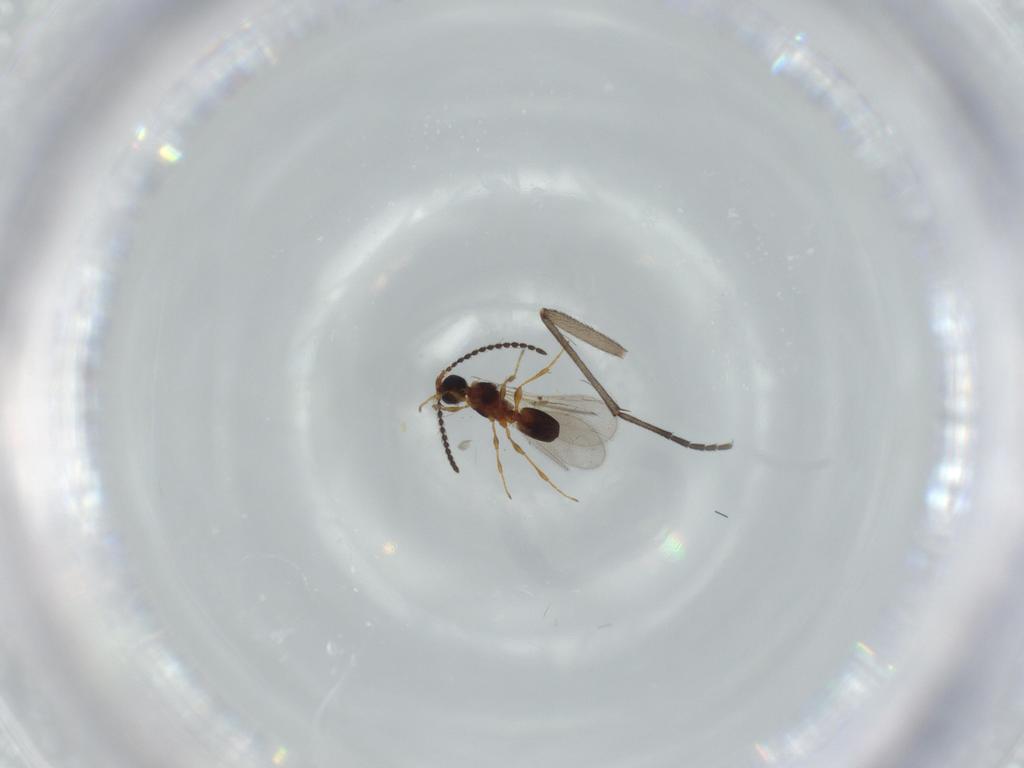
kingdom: Animalia
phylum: Arthropoda
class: Insecta
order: Hymenoptera
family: Diapriidae
